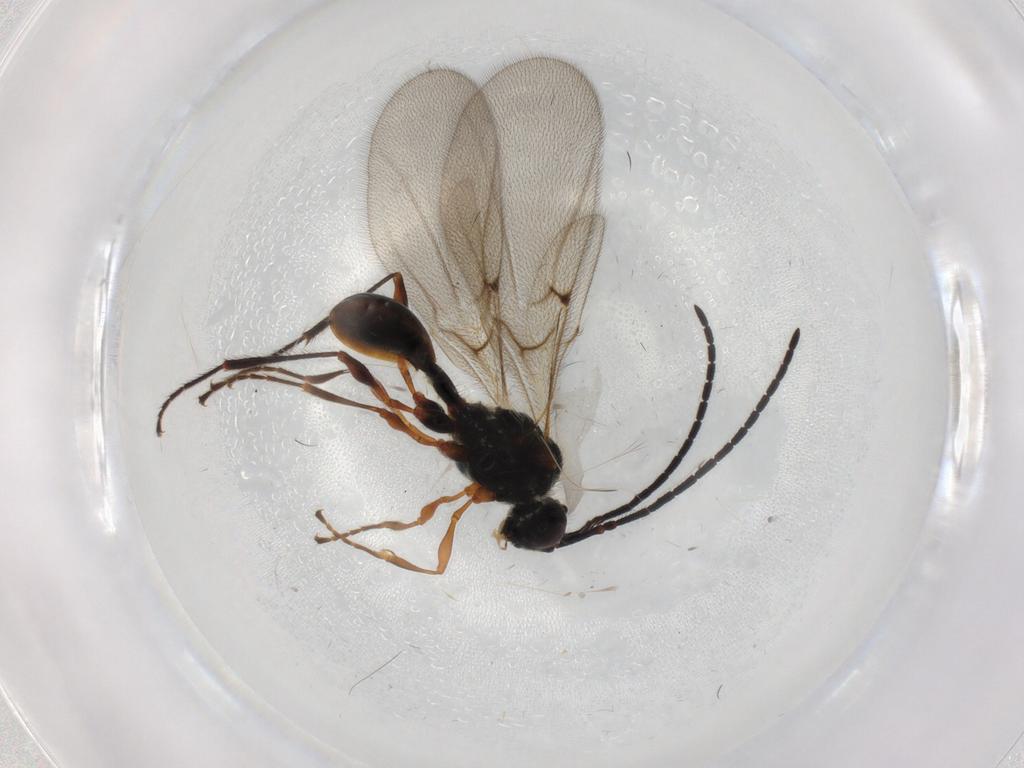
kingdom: Animalia
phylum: Arthropoda
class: Insecta
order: Hymenoptera
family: Diapriidae
